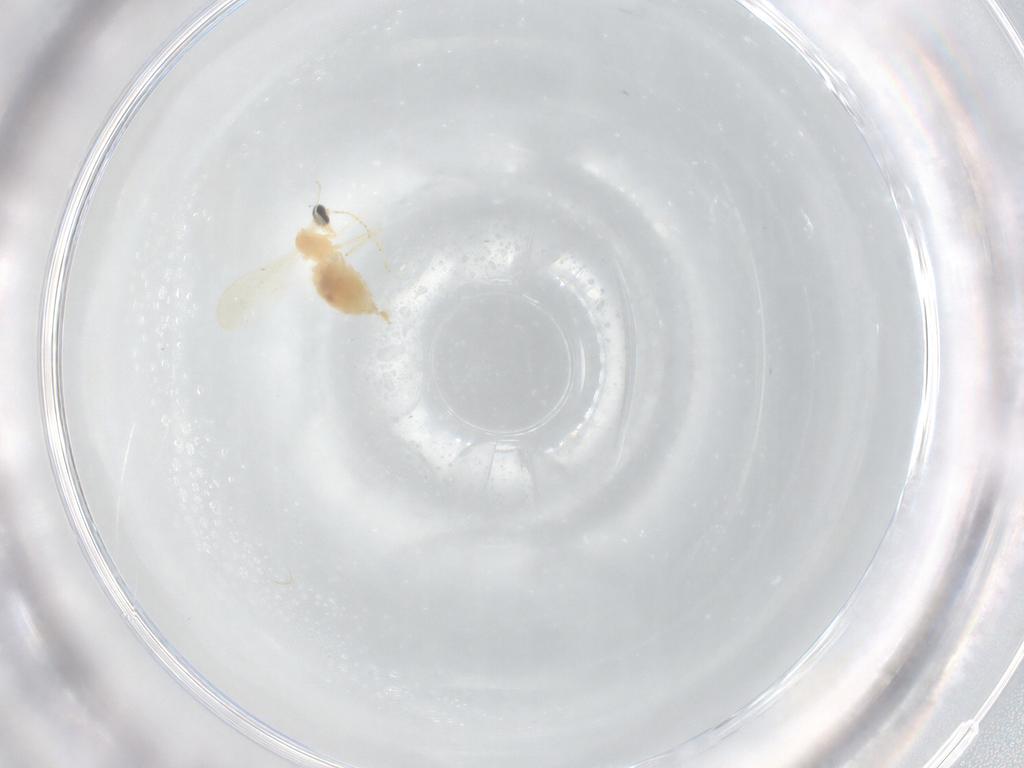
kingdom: Animalia
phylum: Arthropoda
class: Insecta
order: Diptera
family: Cecidomyiidae
